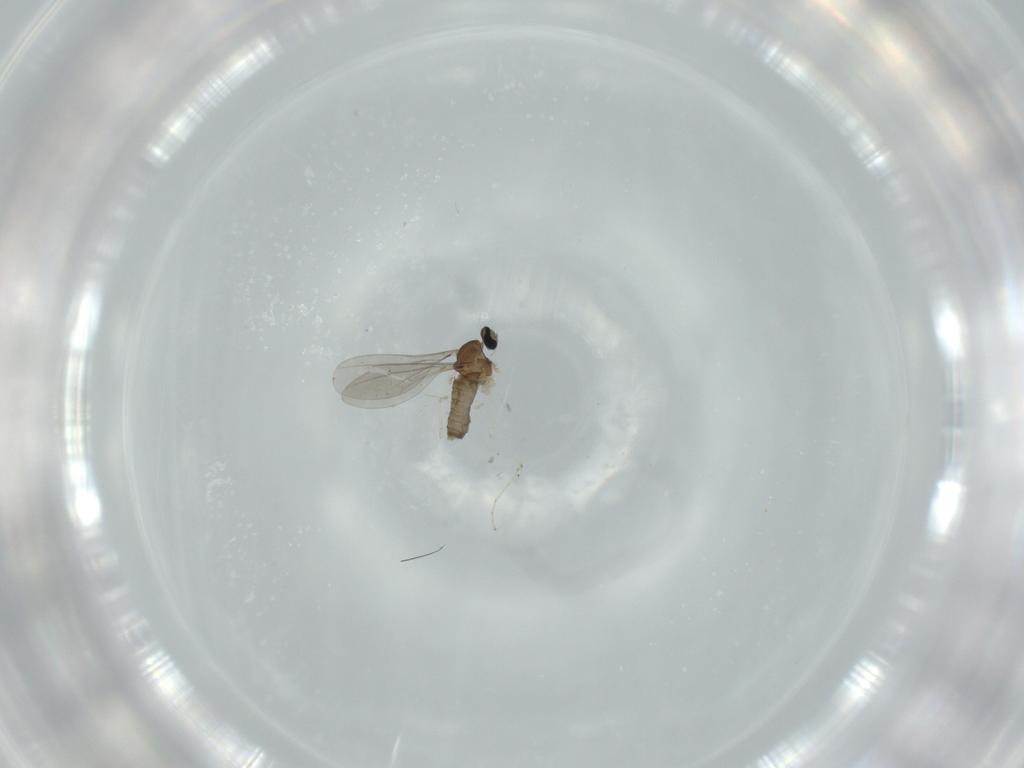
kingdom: Animalia
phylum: Arthropoda
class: Insecta
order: Diptera
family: Cecidomyiidae
